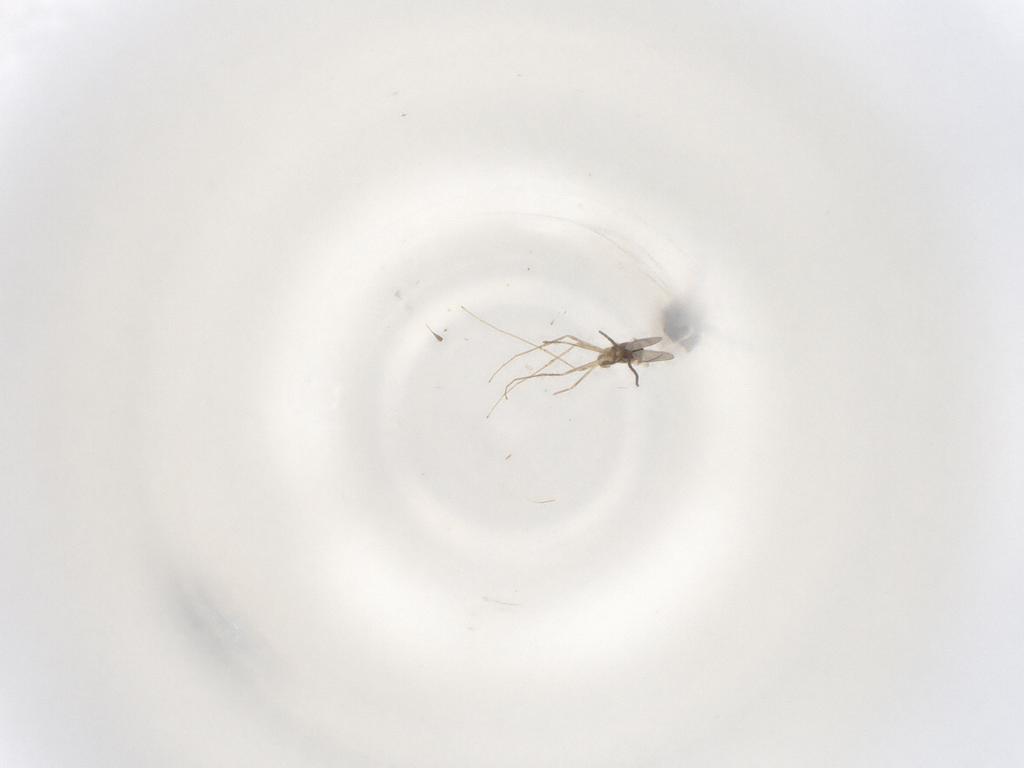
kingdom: Animalia
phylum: Arthropoda
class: Insecta
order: Diptera
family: Cecidomyiidae
